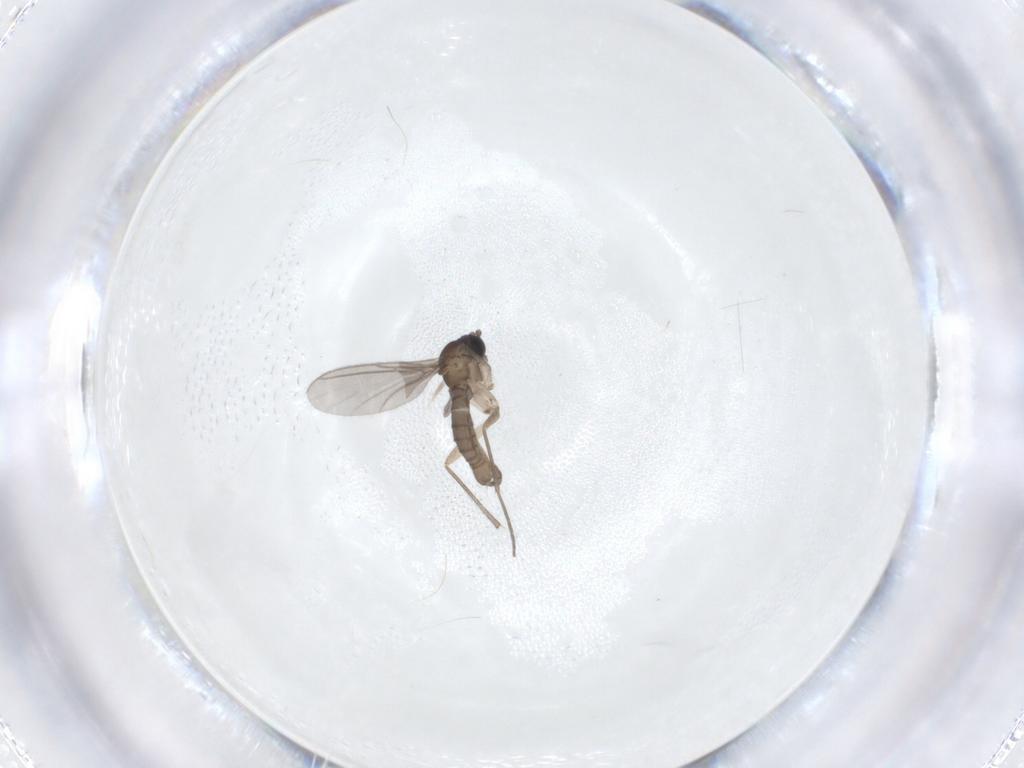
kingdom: Animalia
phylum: Arthropoda
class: Insecta
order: Diptera
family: Sciaridae
